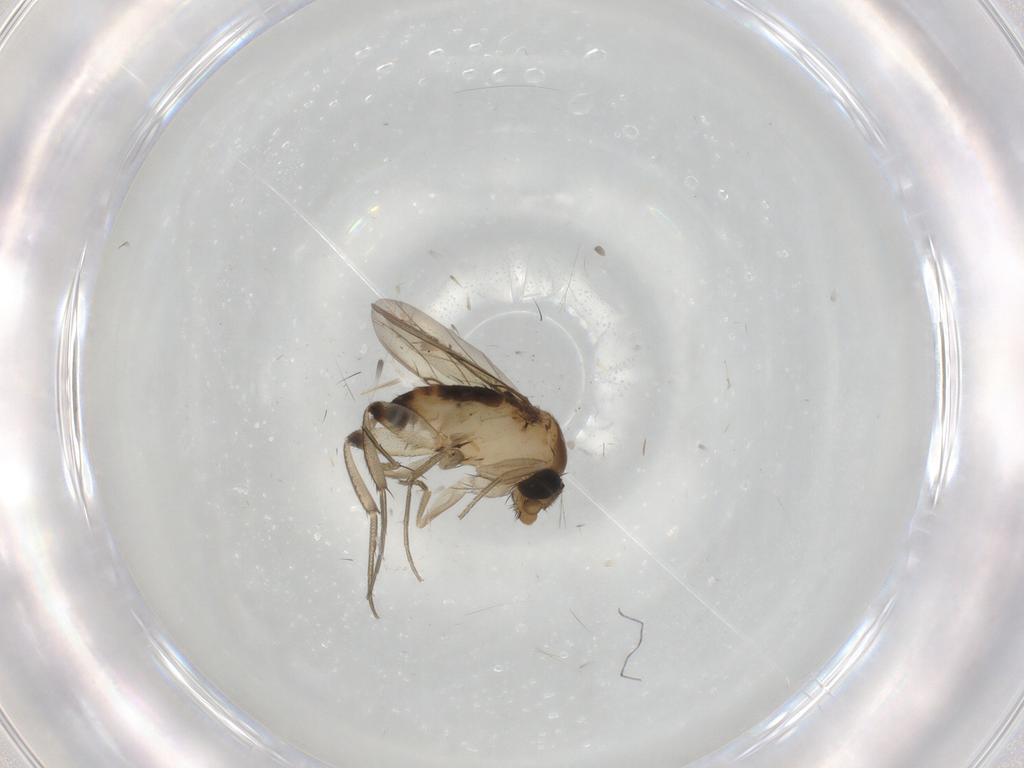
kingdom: Animalia
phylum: Arthropoda
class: Insecta
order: Diptera
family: Phoridae
